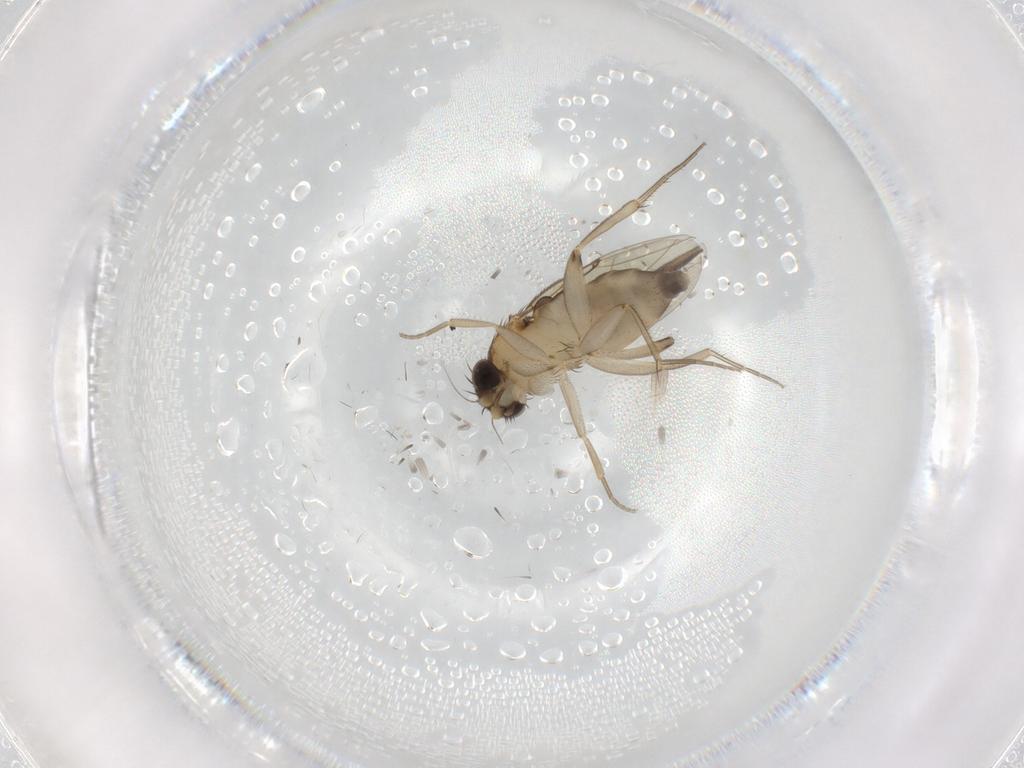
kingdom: Animalia
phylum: Arthropoda
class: Insecta
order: Diptera
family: Phoridae
